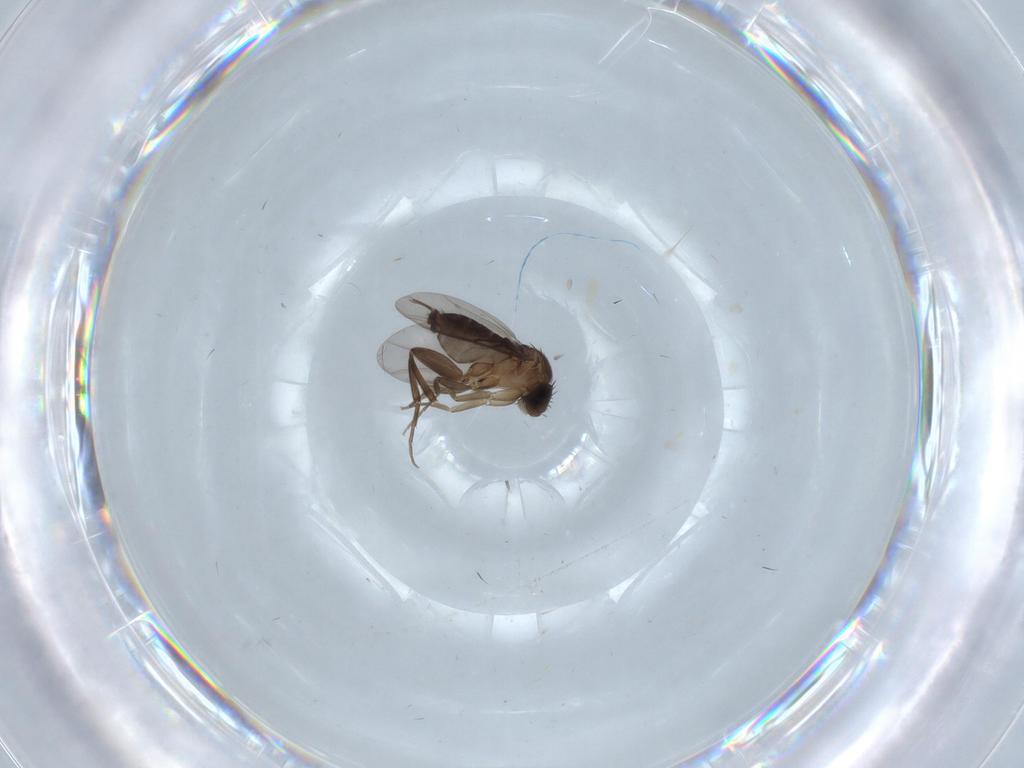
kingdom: Animalia
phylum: Arthropoda
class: Insecta
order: Diptera
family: Phoridae
